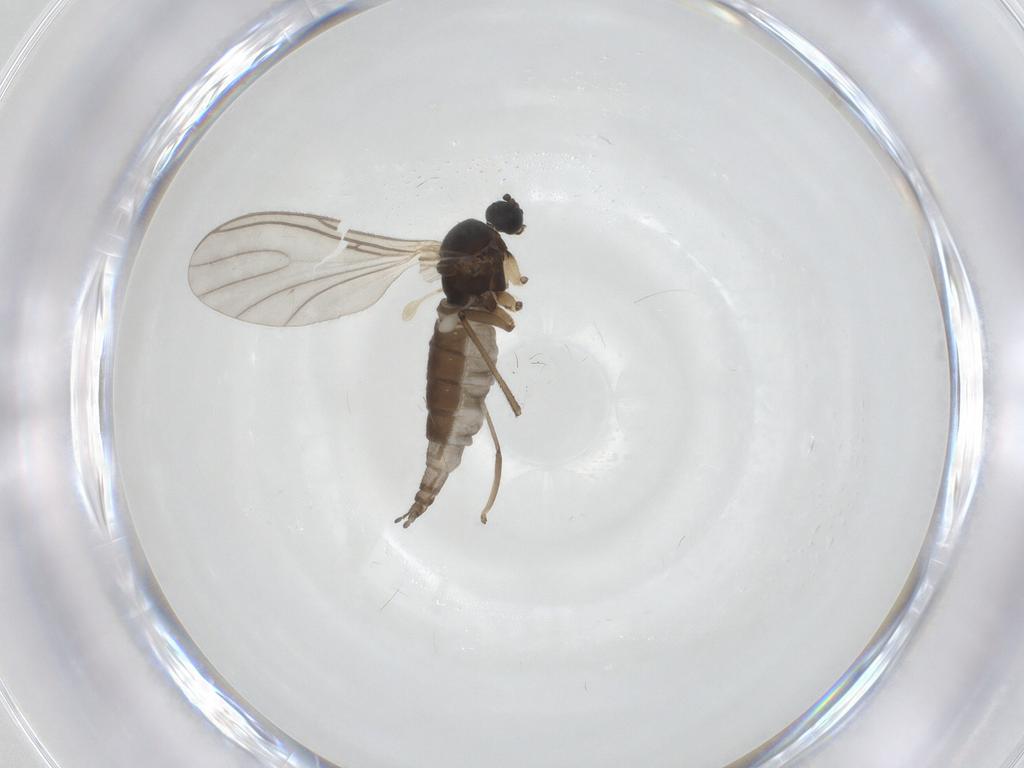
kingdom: Animalia
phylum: Arthropoda
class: Insecta
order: Diptera
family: Sciaridae
